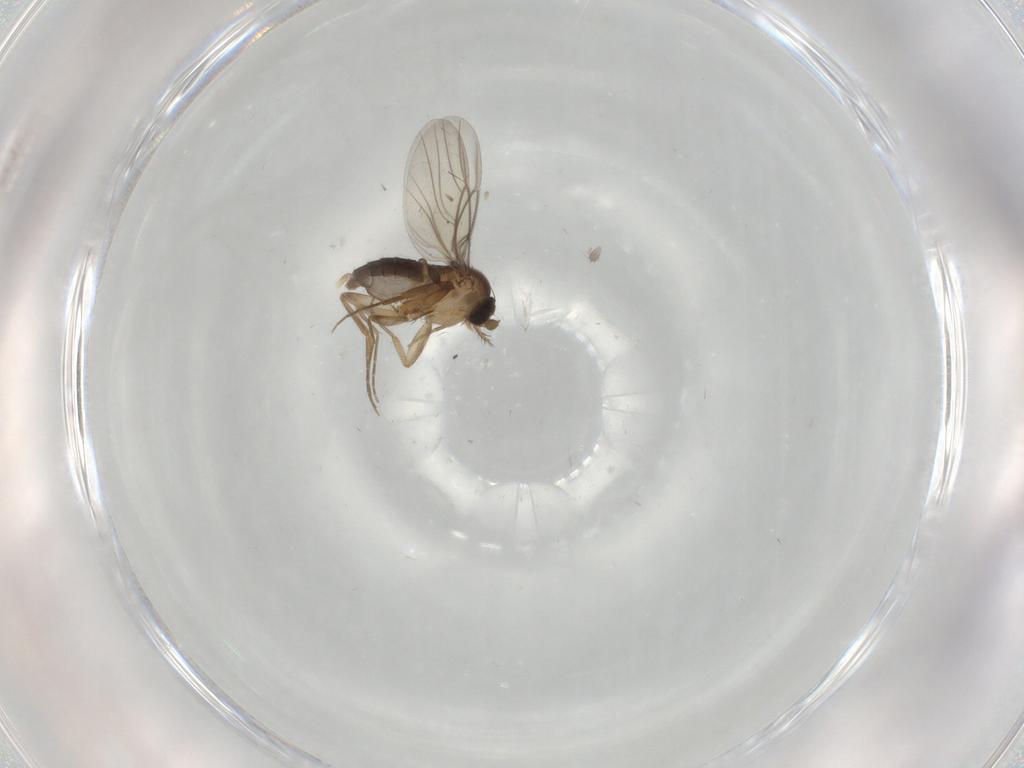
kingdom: Animalia
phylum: Arthropoda
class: Insecta
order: Diptera
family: Phoridae
